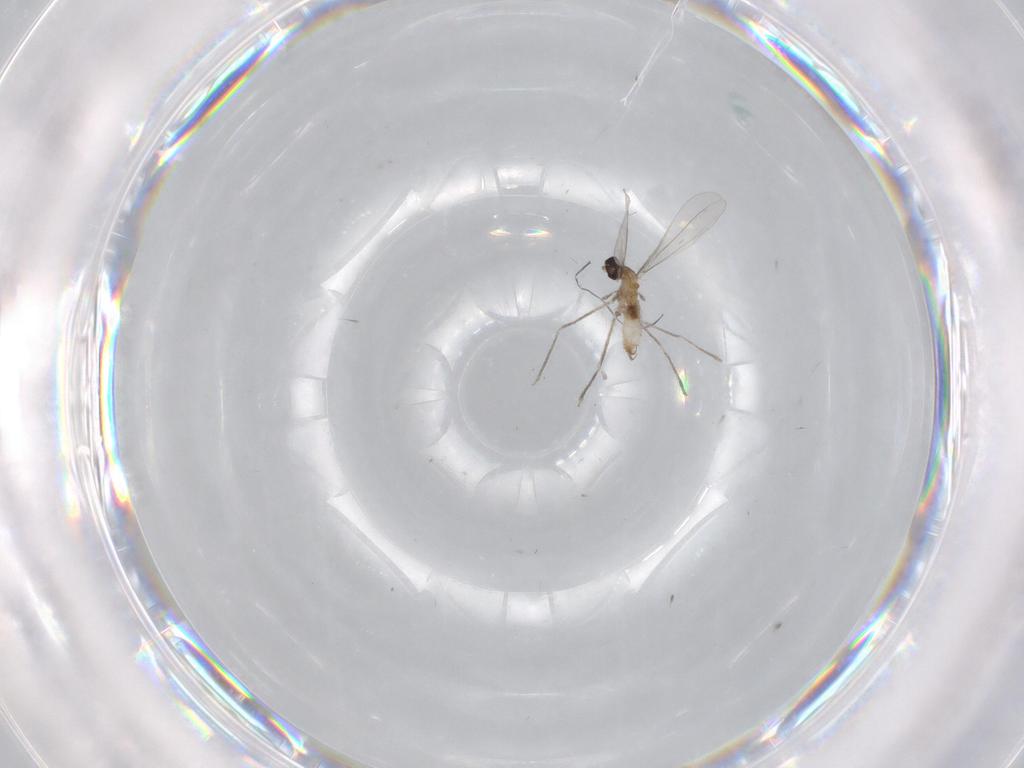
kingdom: Animalia
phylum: Arthropoda
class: Insecta
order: Diptera
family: Cecidomyiidae
